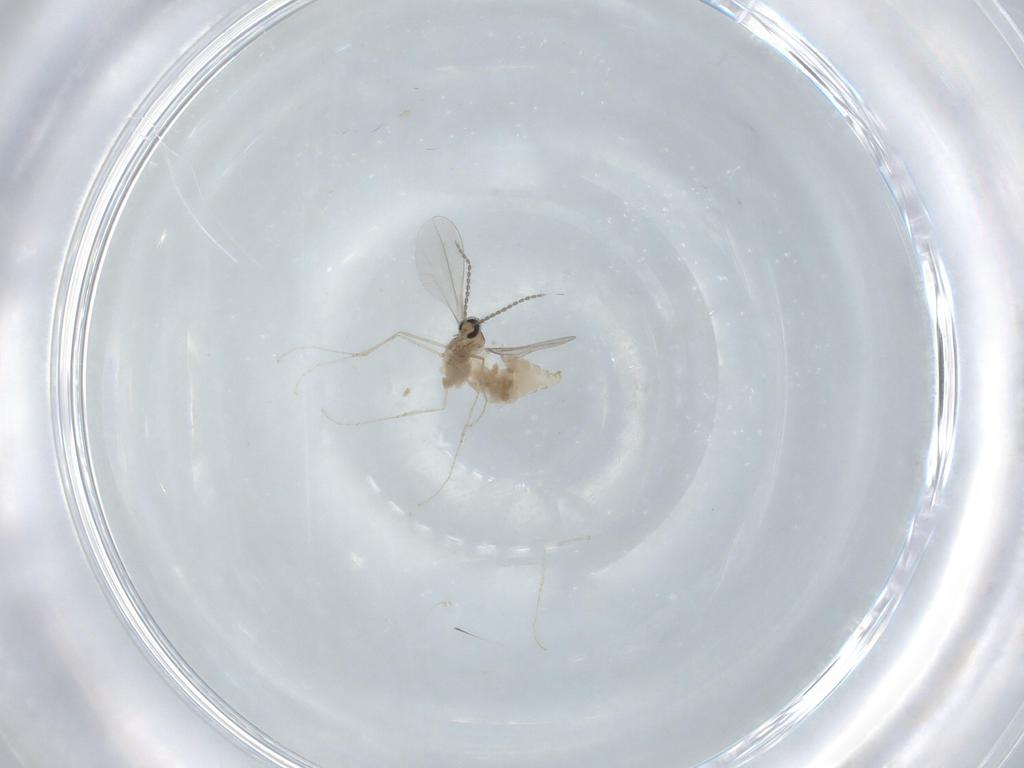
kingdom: Animalia
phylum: Arthropoda
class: Insecta
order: Diptera
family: Cecidomyiidae
